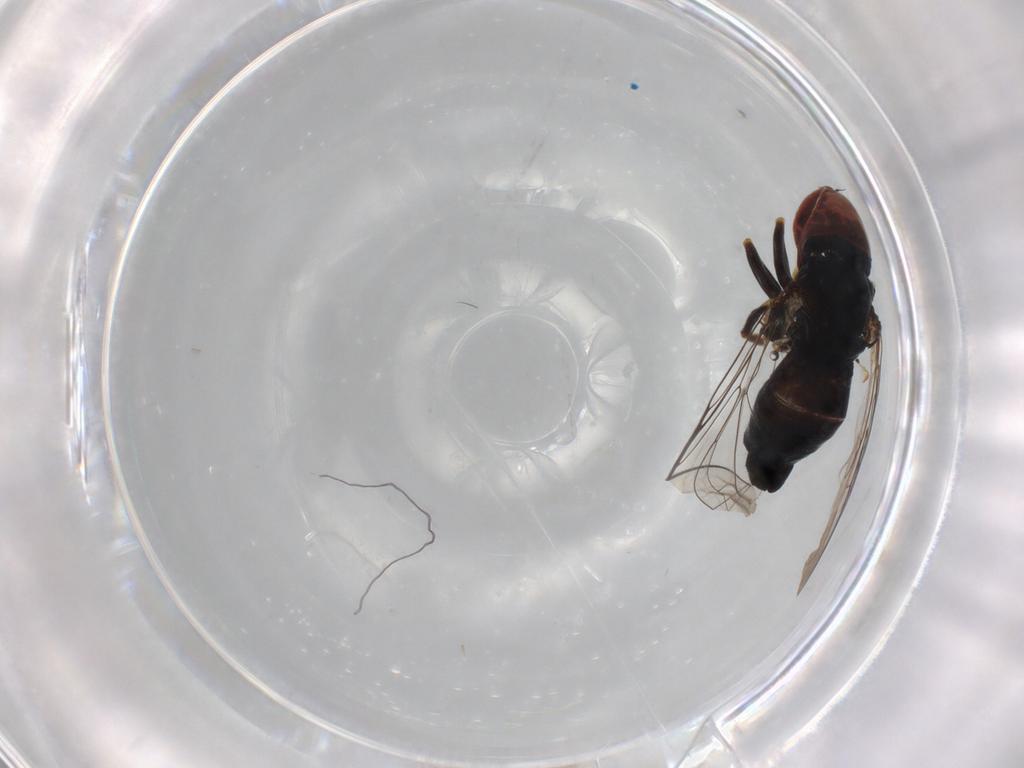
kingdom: Animalia
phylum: Arthropoda
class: Insecta
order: Diptera
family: Pipunculidae
